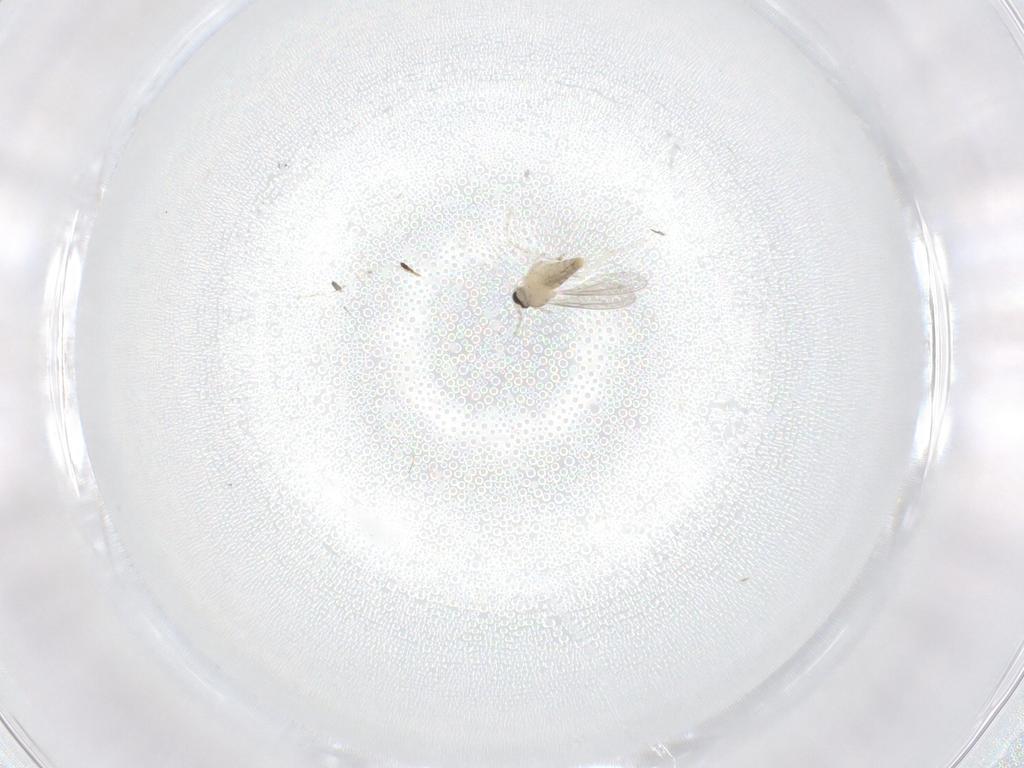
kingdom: Animalia
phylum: Arthropoda
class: Insecta
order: Diptera
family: Cecidomyiidae
